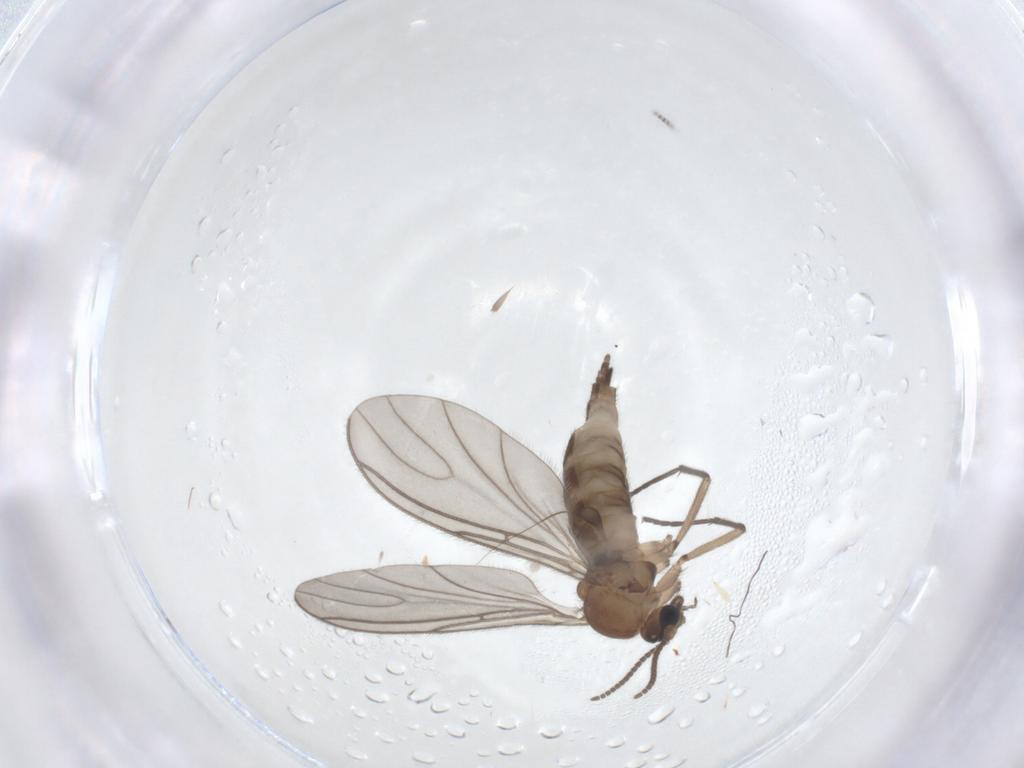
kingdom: Animalia
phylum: Arthropoda
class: Insecta
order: Diptera
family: Sciaridae
